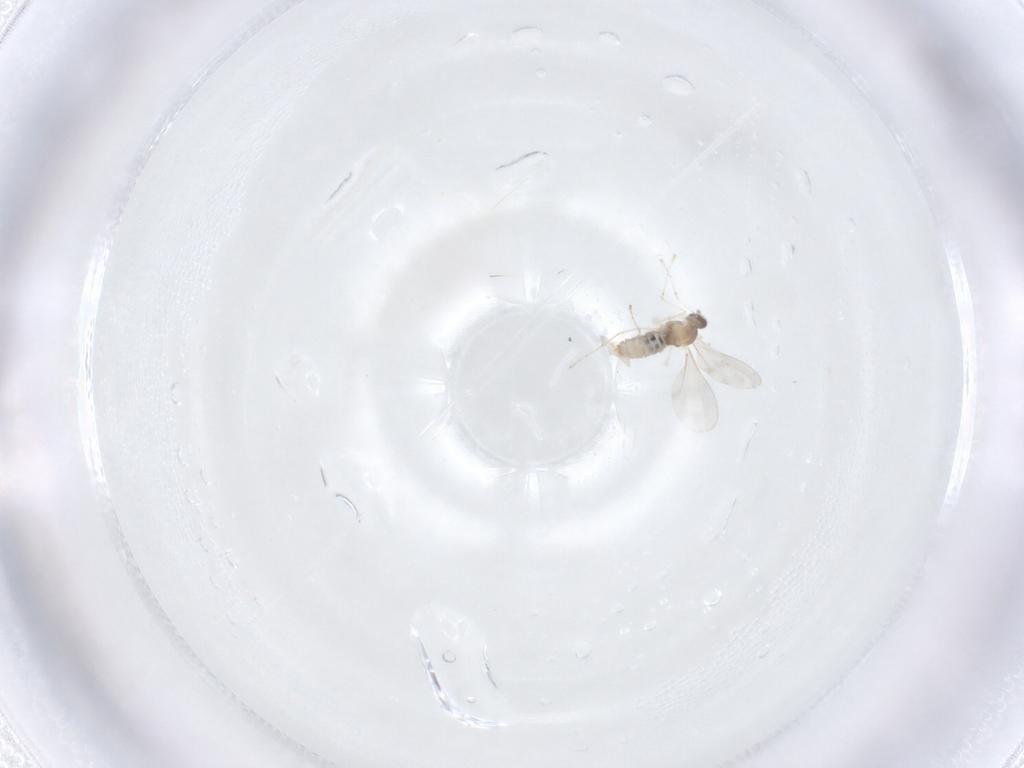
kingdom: Animalia
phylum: Arthropoda
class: Insecta
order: Diptera
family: Cecidomyiidae
